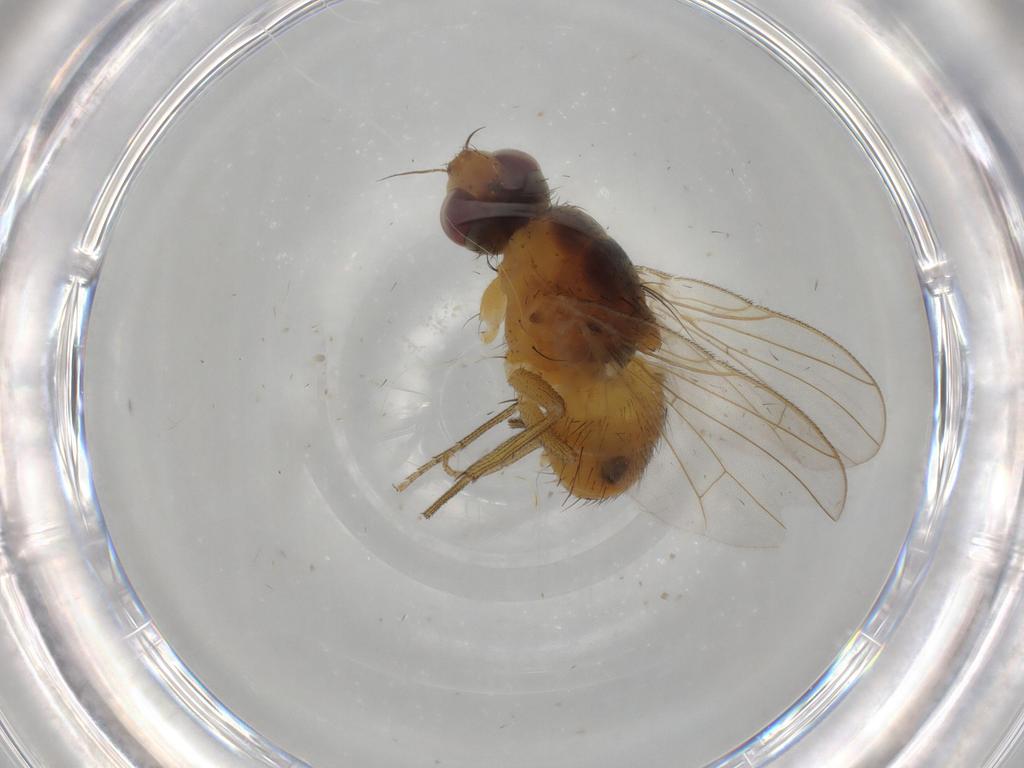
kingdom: Animalia
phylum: Arthropoda
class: Insecta
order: Diptera
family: Muscidae
